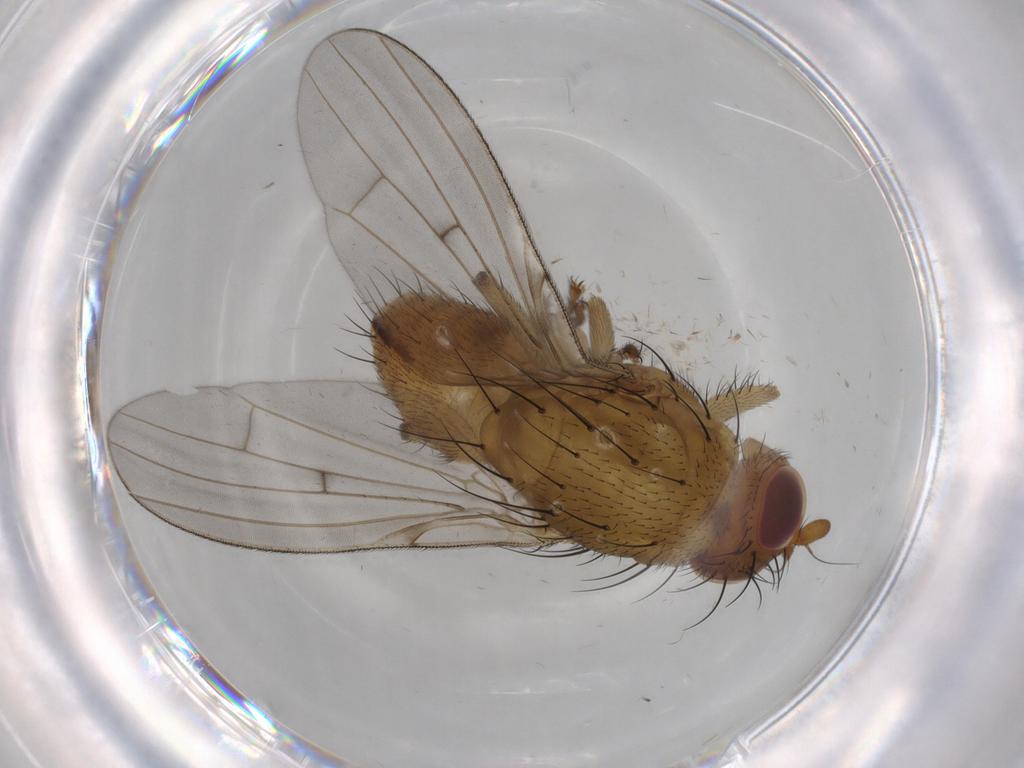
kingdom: Animalia
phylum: Arthropoda
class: Insecta
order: Diptera
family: Lauxaniidae
